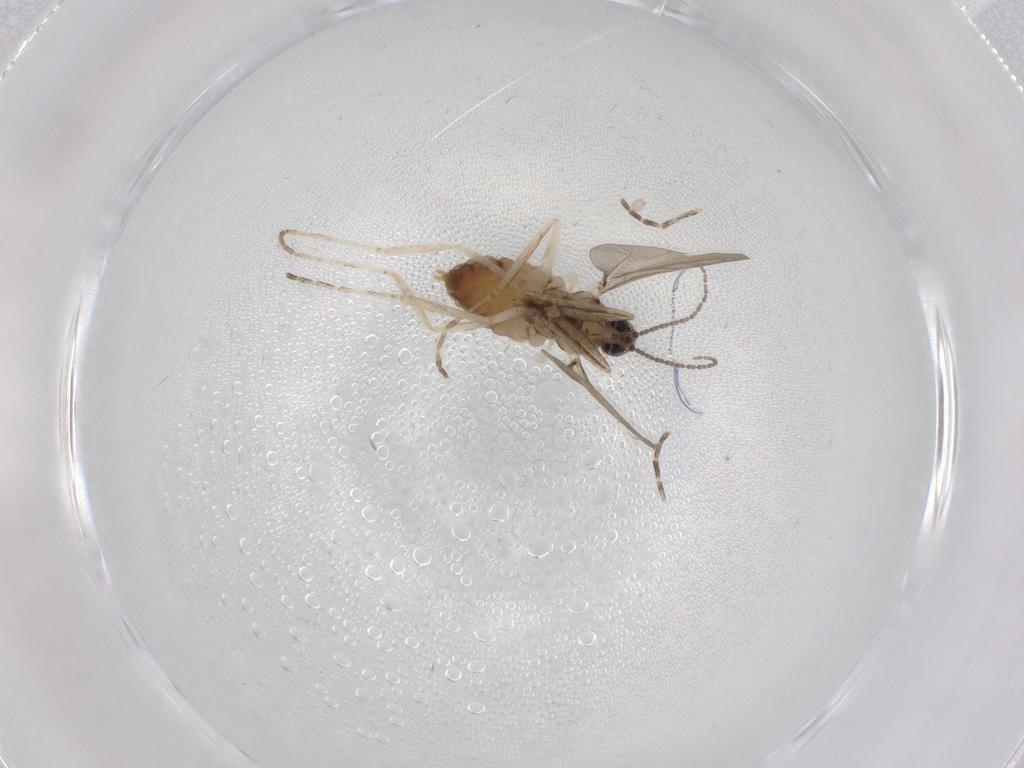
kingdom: Animalia
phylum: Arthropoda
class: Insecta
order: Diptera
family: Cecidomyiidae
